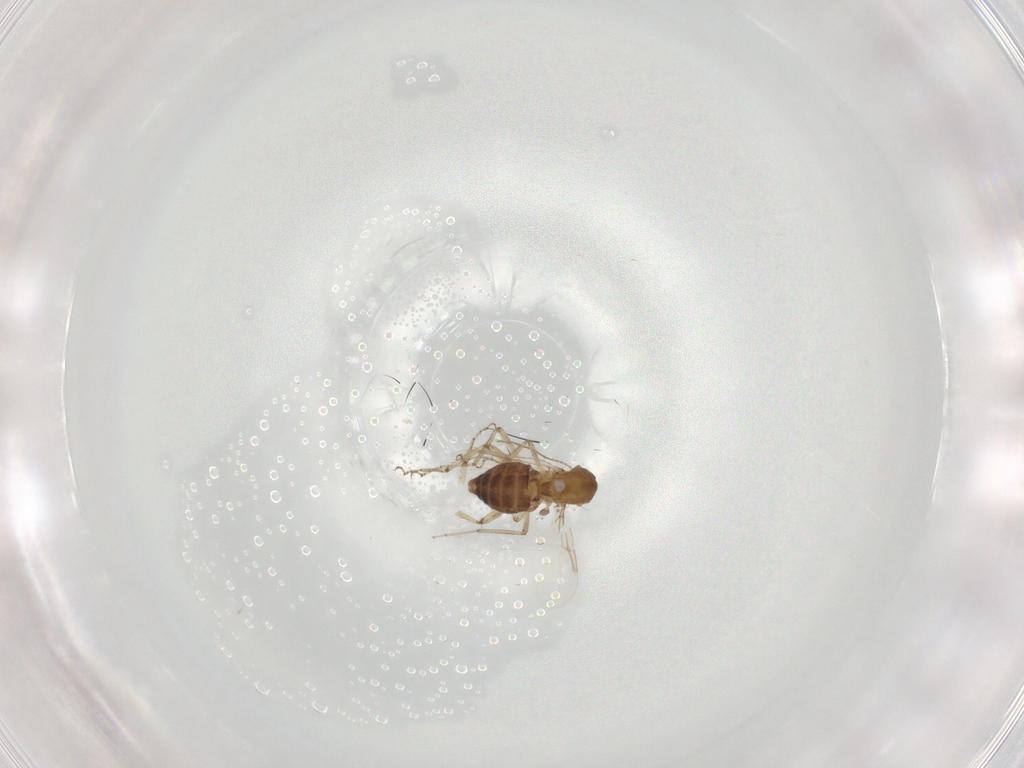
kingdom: Animalia
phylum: Arthropoda
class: Insecta
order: Diptera
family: Ceratopogonidae
